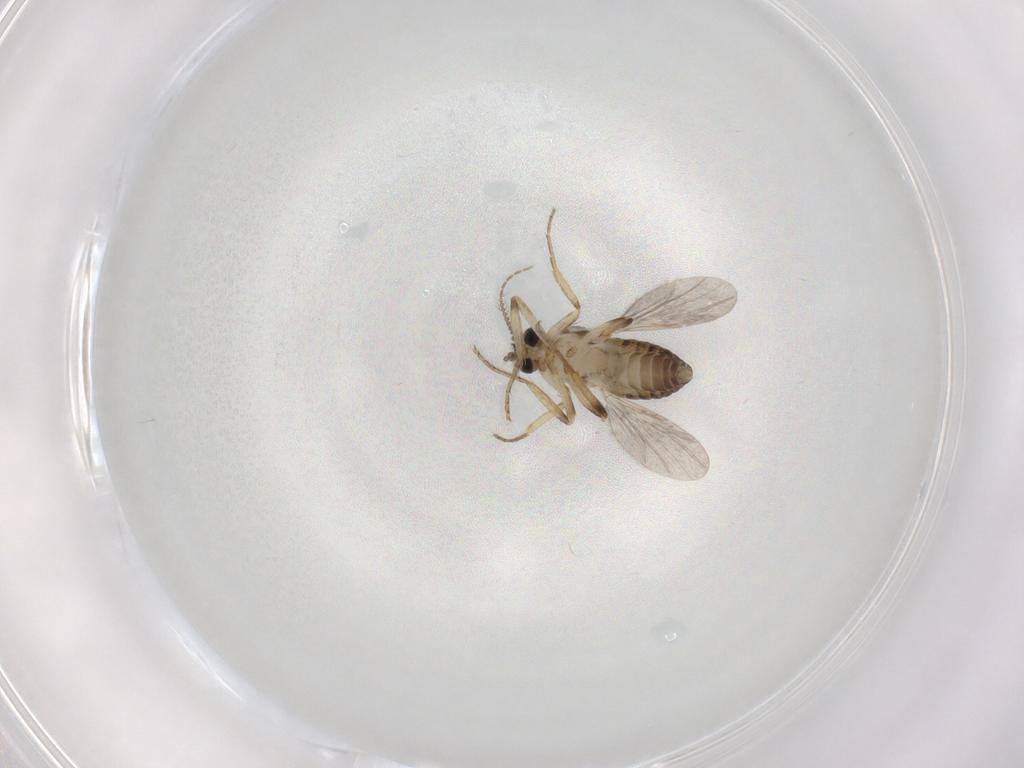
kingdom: Animalia
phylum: Arthropoda
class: Insecta
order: Diptera
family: Ceratopogonidae
